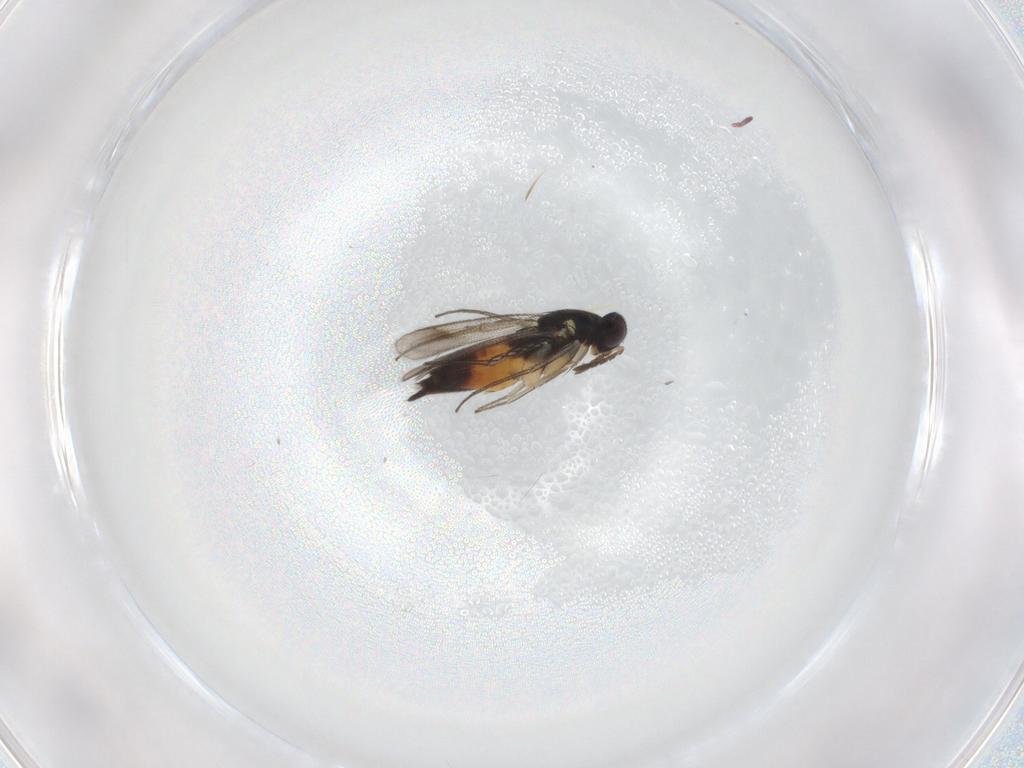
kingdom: Animalia
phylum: Arthropoda
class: Insecta
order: Hymenoptera
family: Eulophidae
